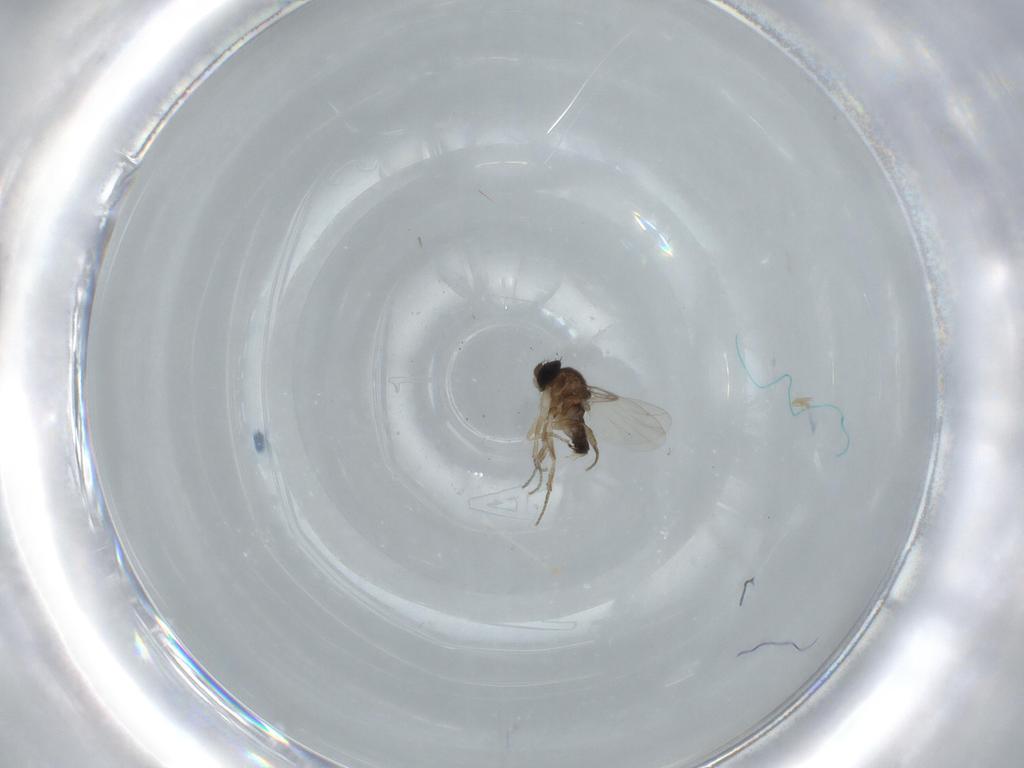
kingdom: Animalia
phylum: Arthropoda
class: Insecta
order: Diptera
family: Phoridae
